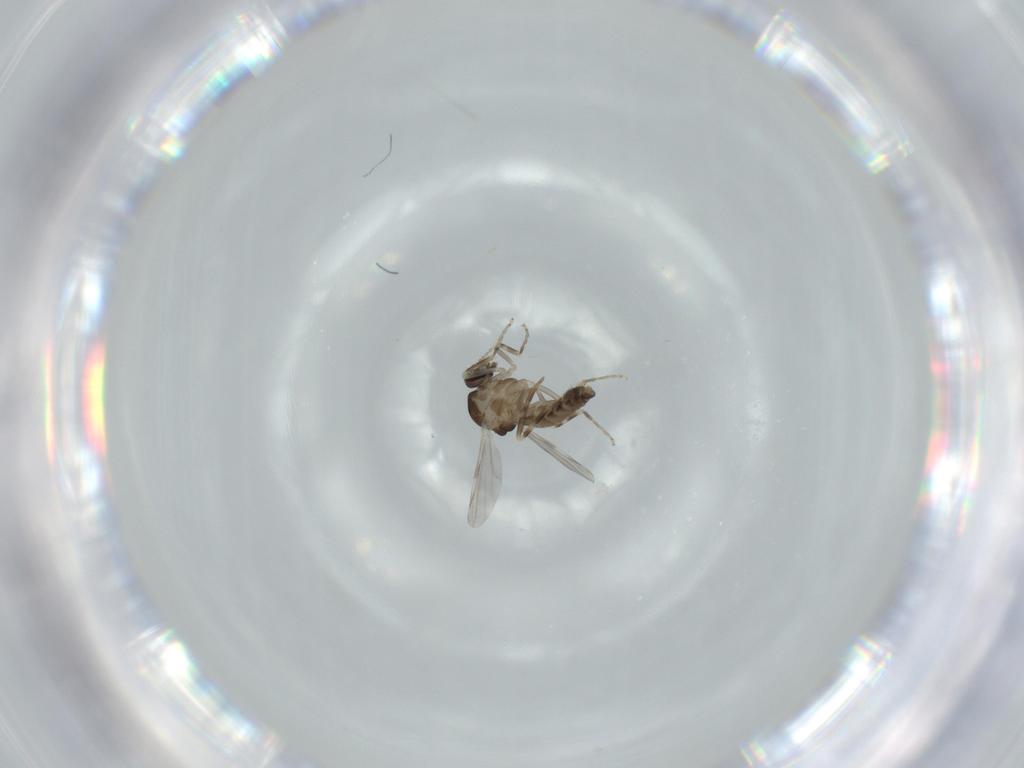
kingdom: Animalia
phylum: Arthropoda
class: Insecta
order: Diptera
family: Ceratopogonidae
